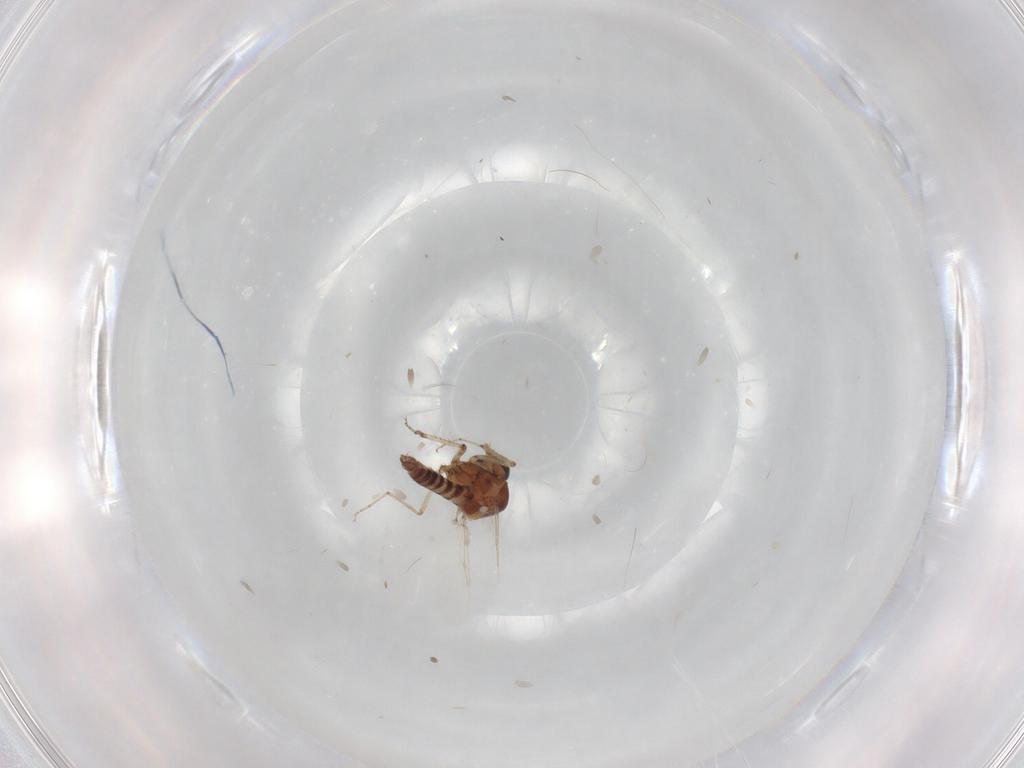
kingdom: Animalia
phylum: Arthropoda
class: Insecta
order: Diptera
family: Ceratopogonidae
